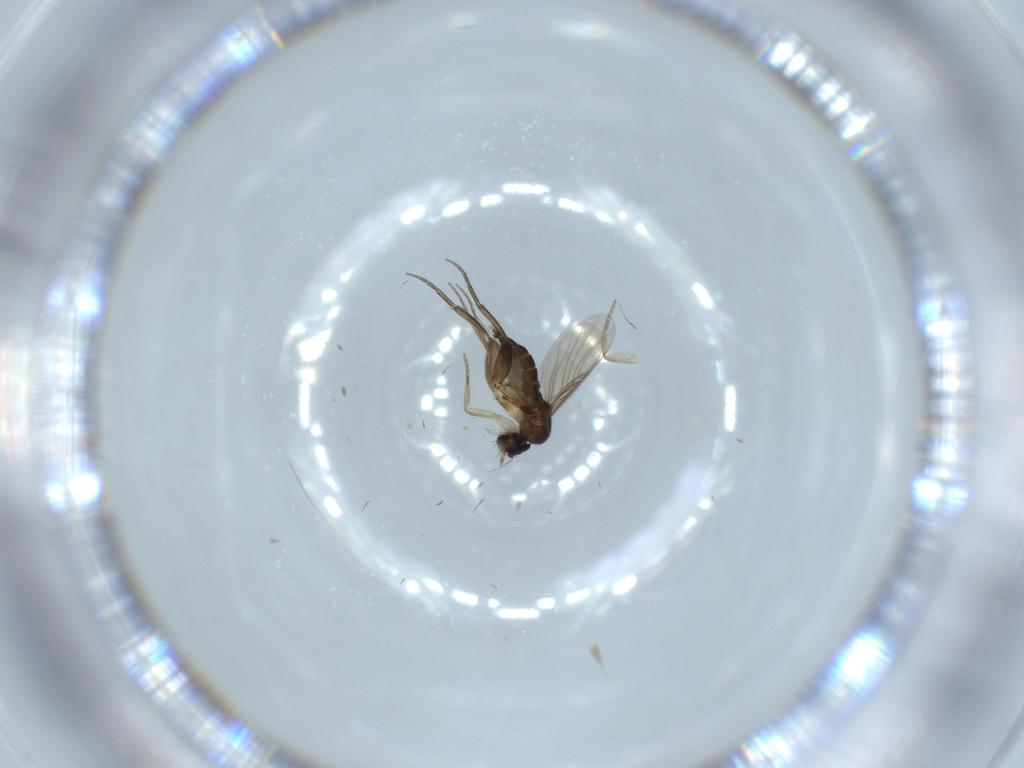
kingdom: Animalia
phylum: Arthropoda
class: Insecta
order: Diptera
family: Phoridae
